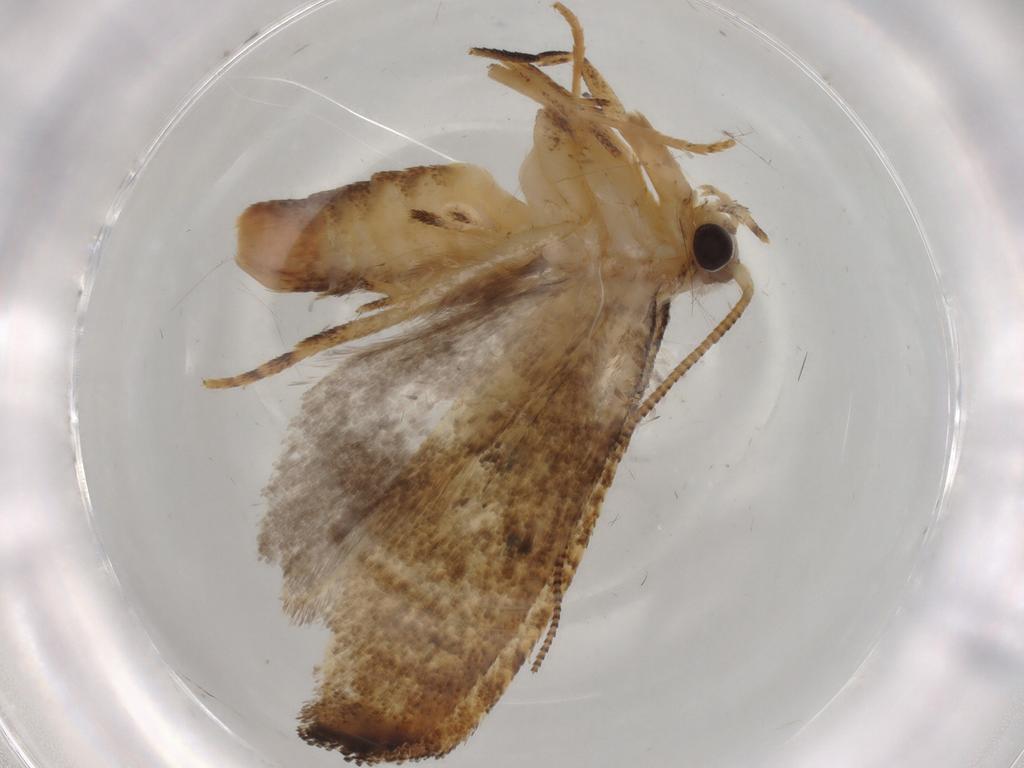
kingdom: Animalia
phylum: Arthropoda
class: Insecta
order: Lepidoptera
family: Tineidae
